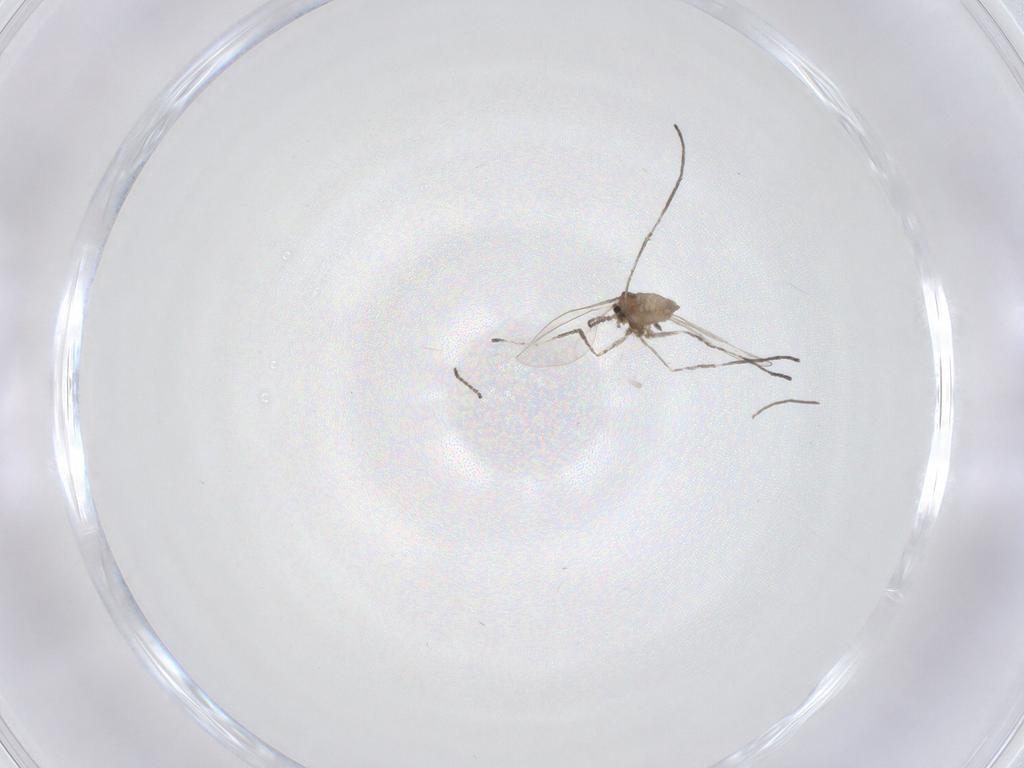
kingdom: Animalia
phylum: Arthropoda
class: Insecta
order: Diptera
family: Cecidomyiidae
